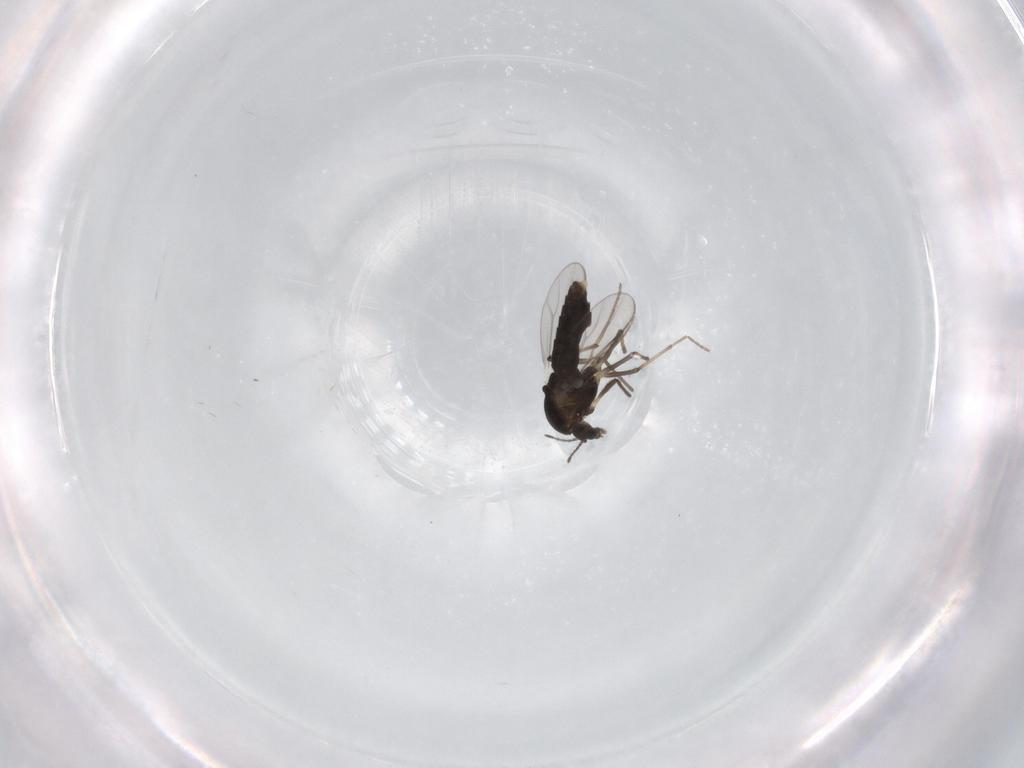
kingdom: Animalia
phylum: Arthropoda
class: Insecta
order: Diptera
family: Chironomidae
